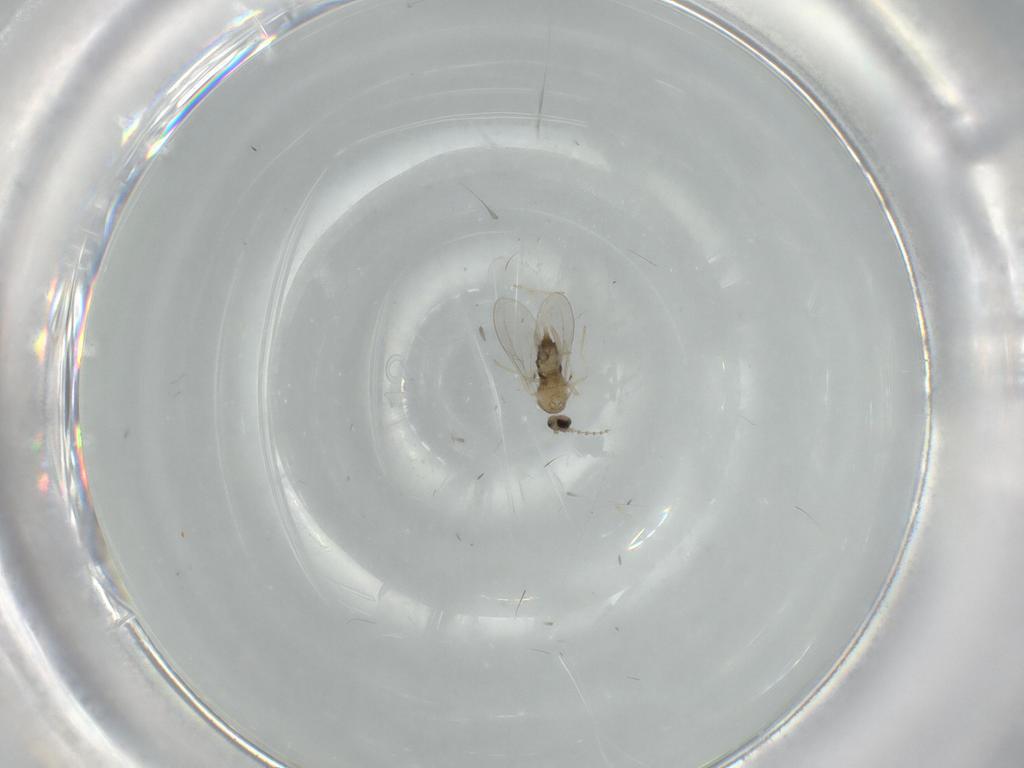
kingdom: Animalia
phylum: Arthropoda
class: Insecta
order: Diptera
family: Cecidomyiidae
